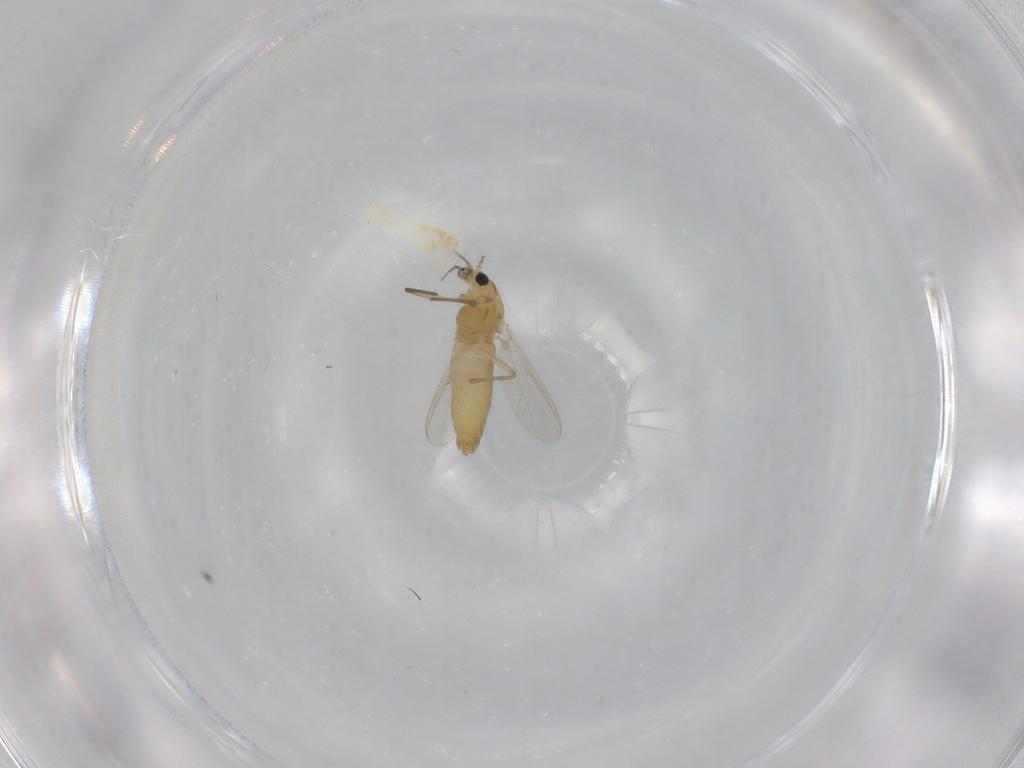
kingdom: Animalia
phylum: Arthropoda
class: Insecta
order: Diptera
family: Chironomidae
